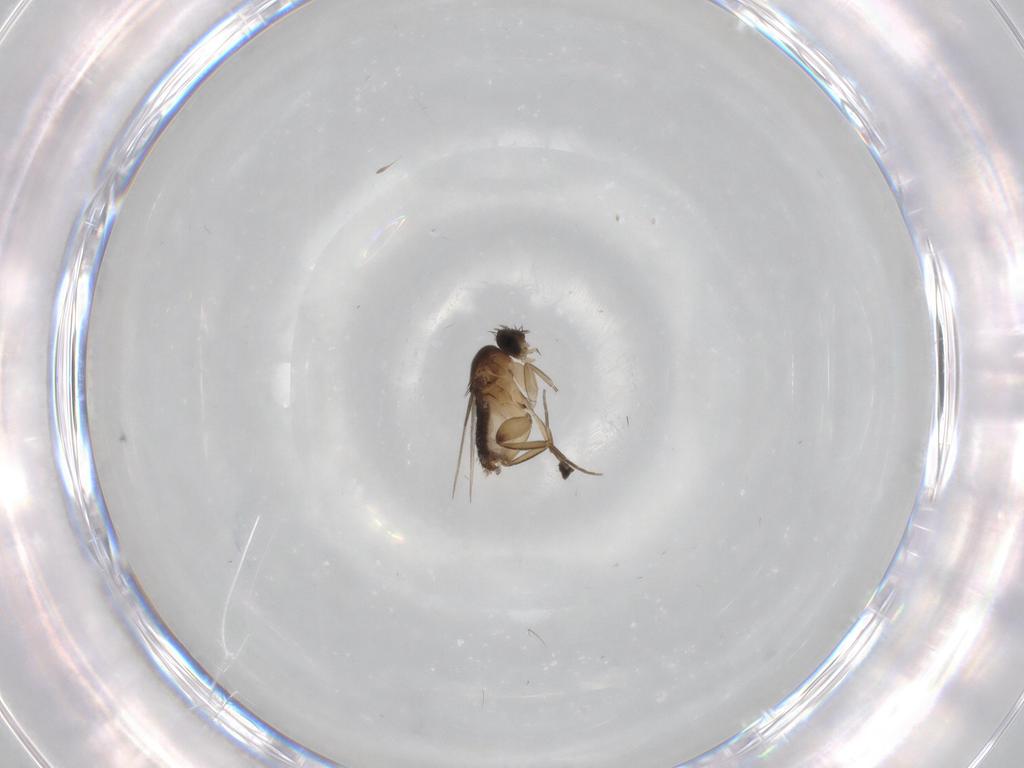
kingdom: Animalia
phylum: Arthropoda
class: Insecta
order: Diptera
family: Phoridae
